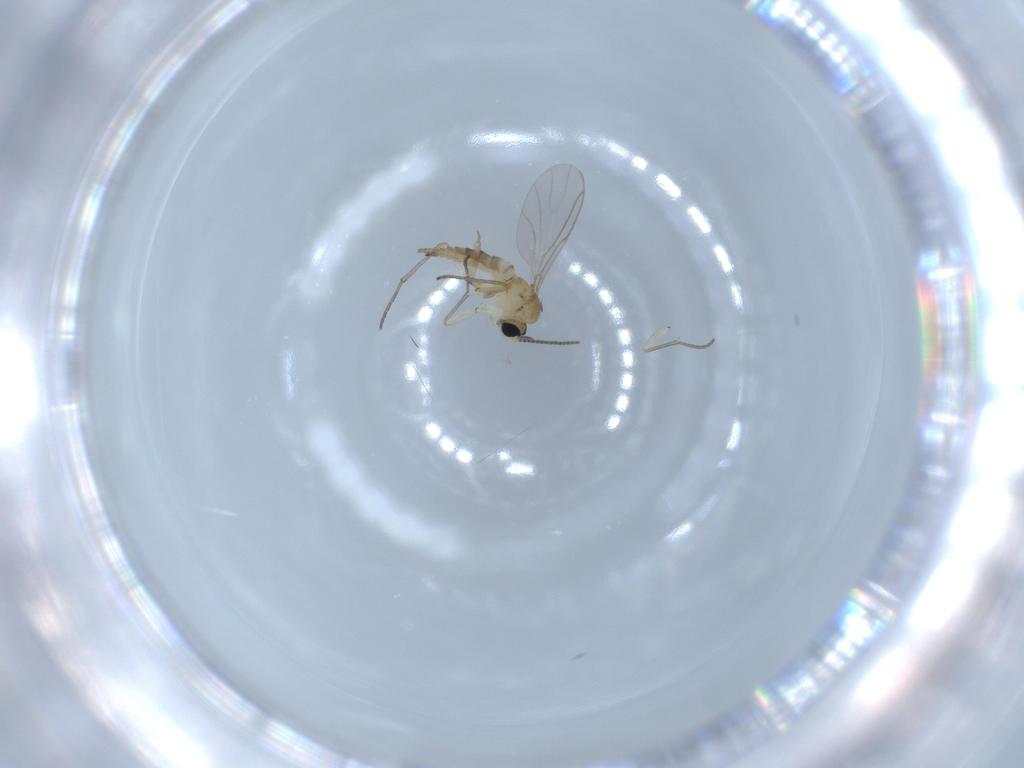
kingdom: Animalia
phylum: Arthropoda
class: Insecta
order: Diptera
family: Sciaridae
